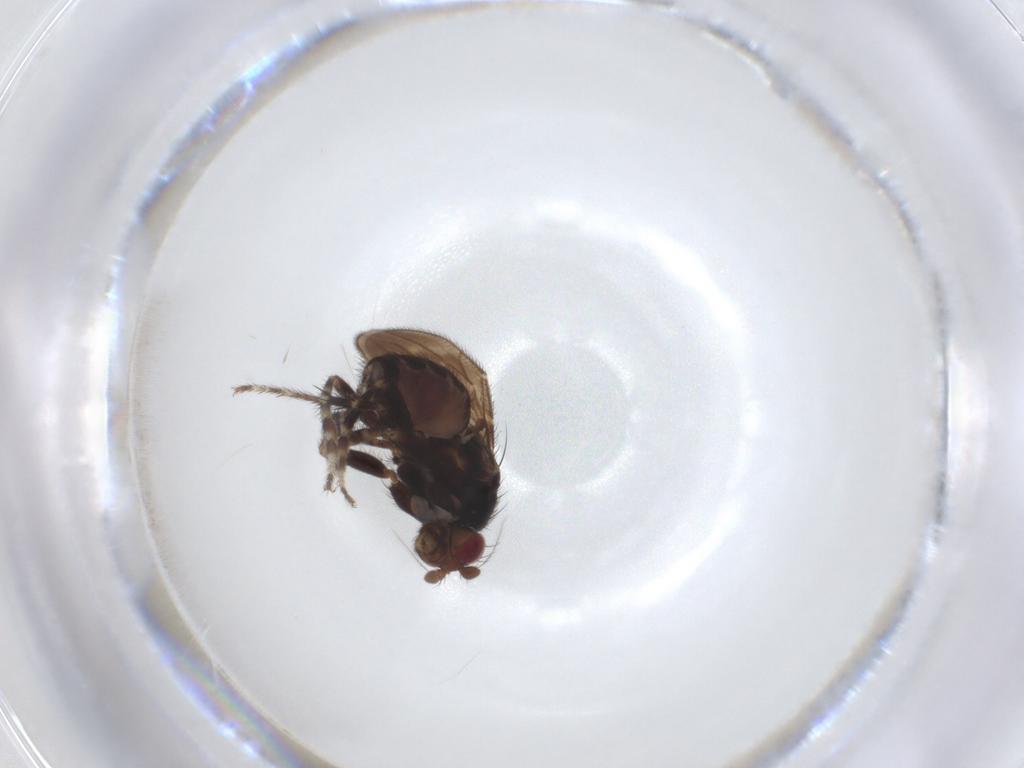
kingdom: Animalia
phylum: Arthropoda
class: Insecta
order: Diptera
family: Sphaeroceridae
